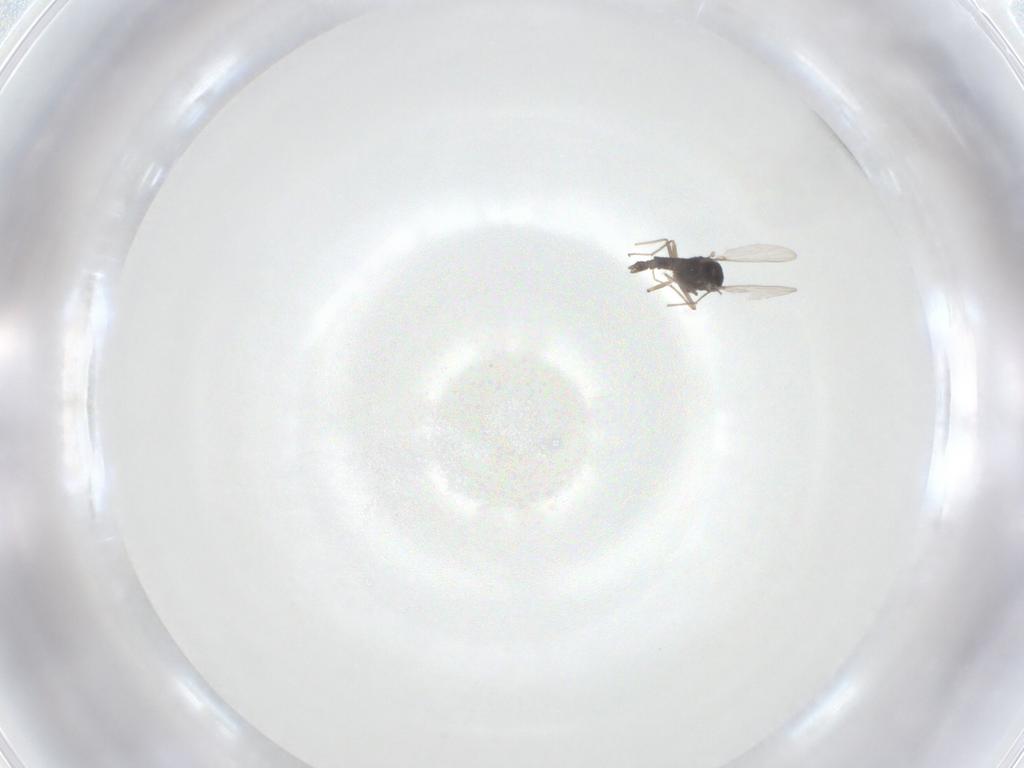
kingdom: Animalia
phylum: Arthropoda
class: Insecta
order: Diptera
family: Chironomidae
